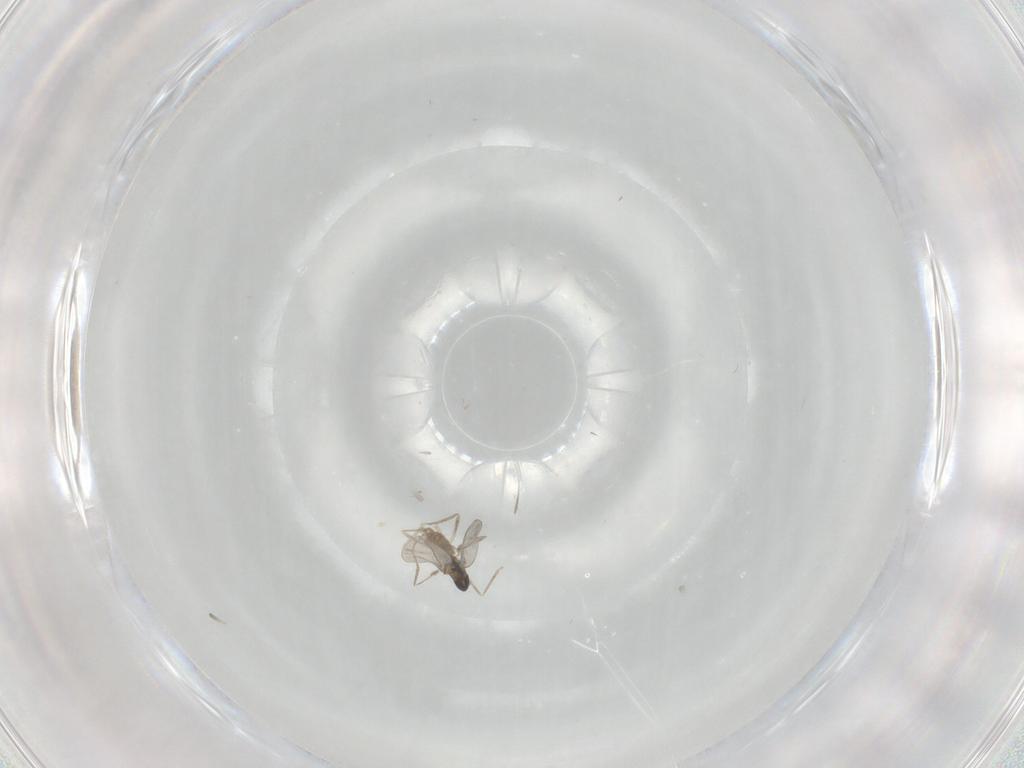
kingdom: Animalia
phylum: Arthropoda
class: Insecta
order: Diptera
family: Cecidomyiidae
